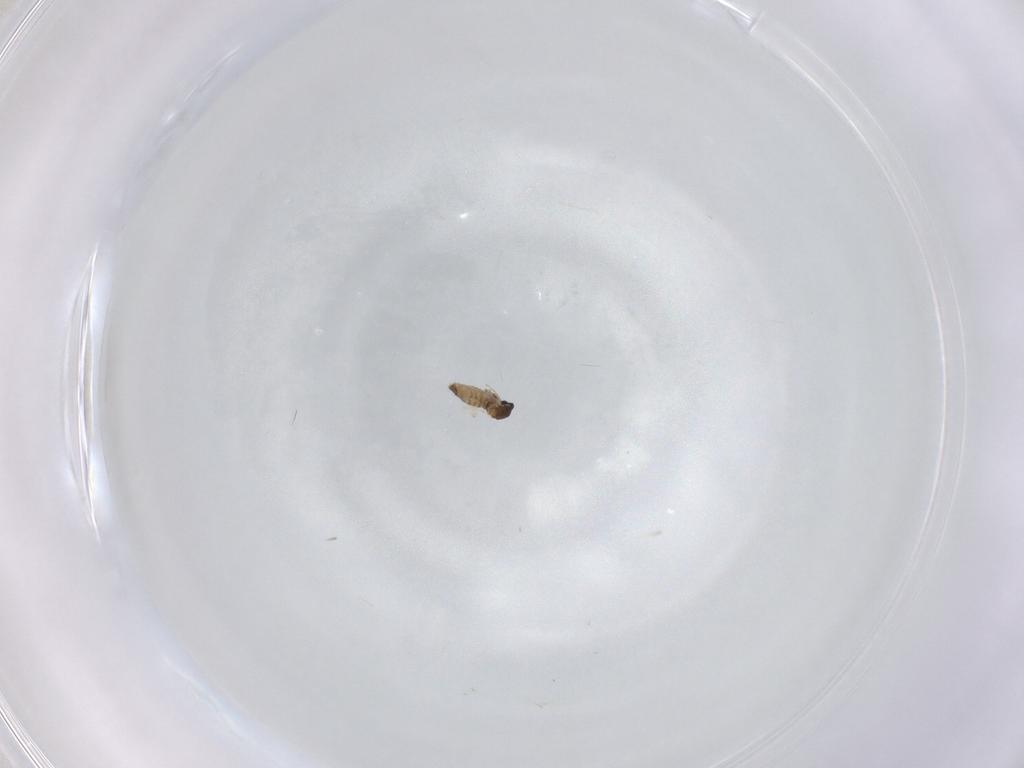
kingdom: Animalia
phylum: Arthropoda
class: Insecta
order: Diptera
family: Cecidomyiidae
